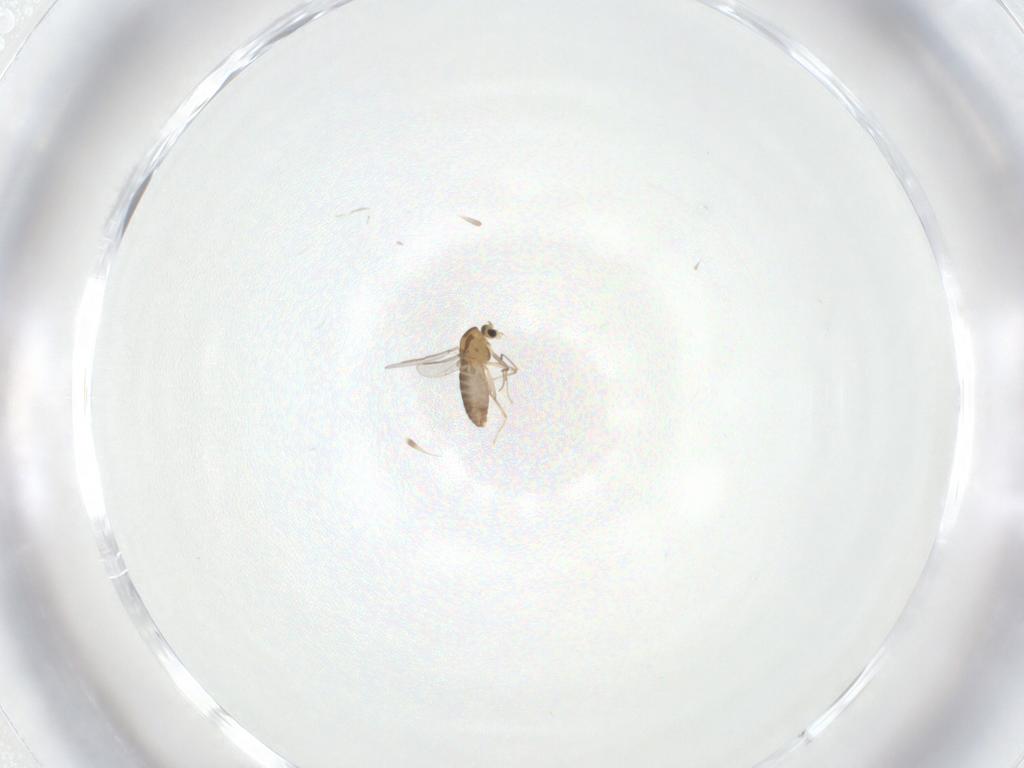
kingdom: Animalia
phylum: Arthropoda
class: Insecta
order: Diptera
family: Chironomidae
